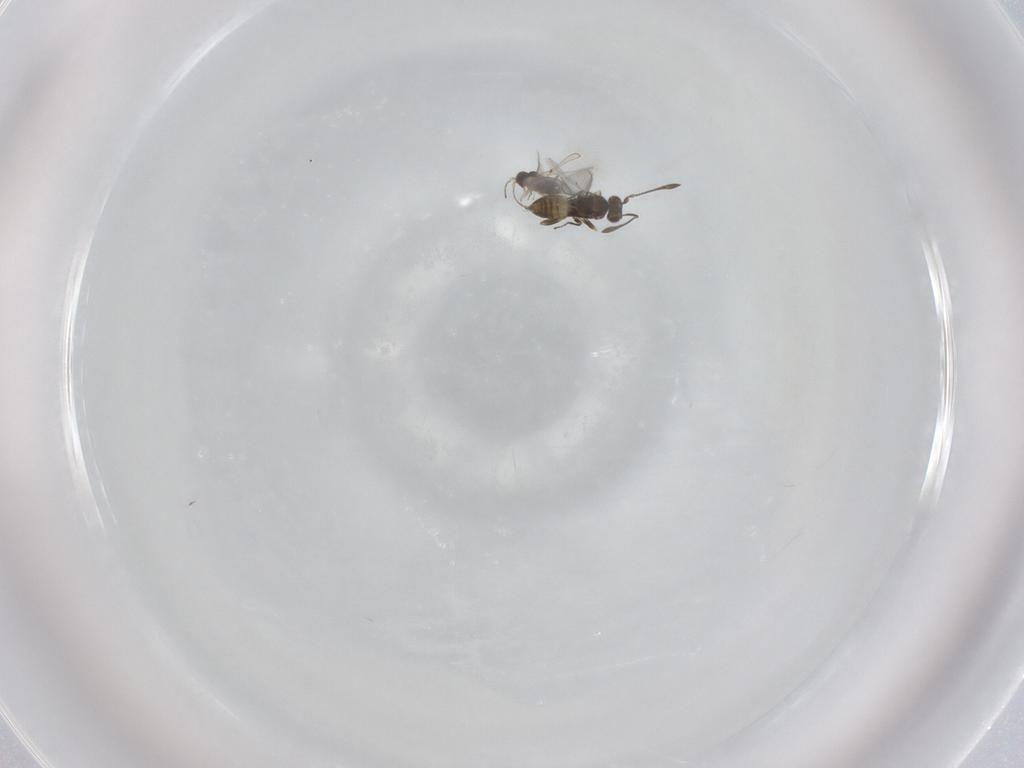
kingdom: Animalia
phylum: Arthropoda
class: Insecta
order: Hymenoptera
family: Mymaridae
